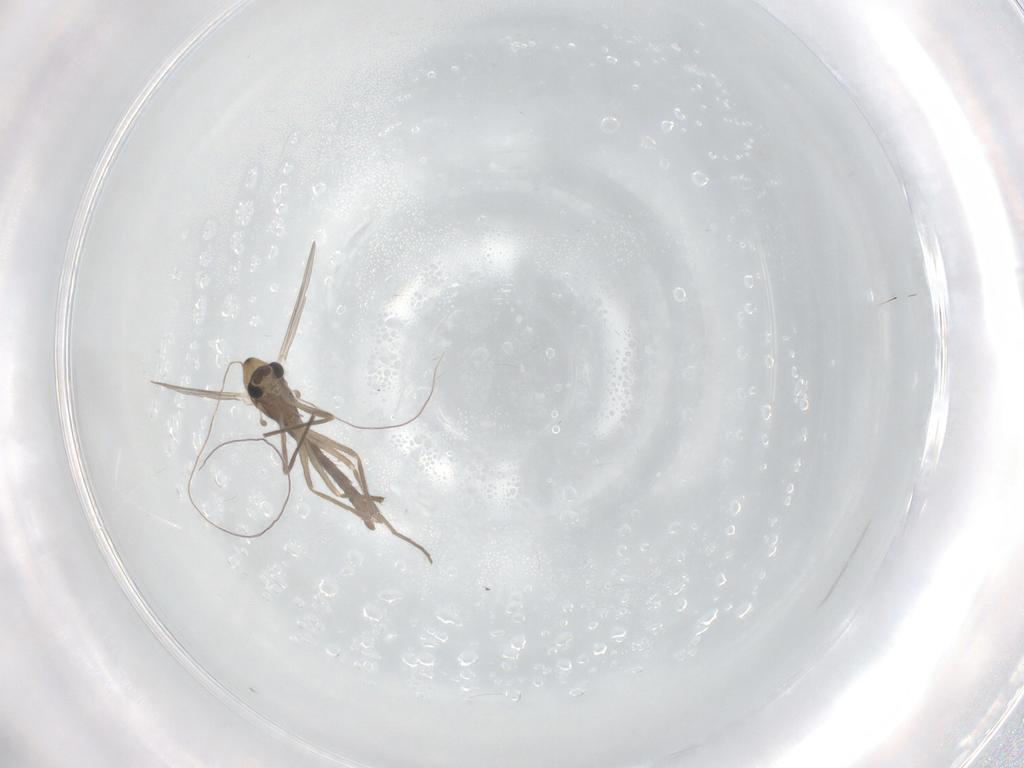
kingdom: Animalia
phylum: Arthropoda
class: Insecta
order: Diptera
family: Chironomidae
